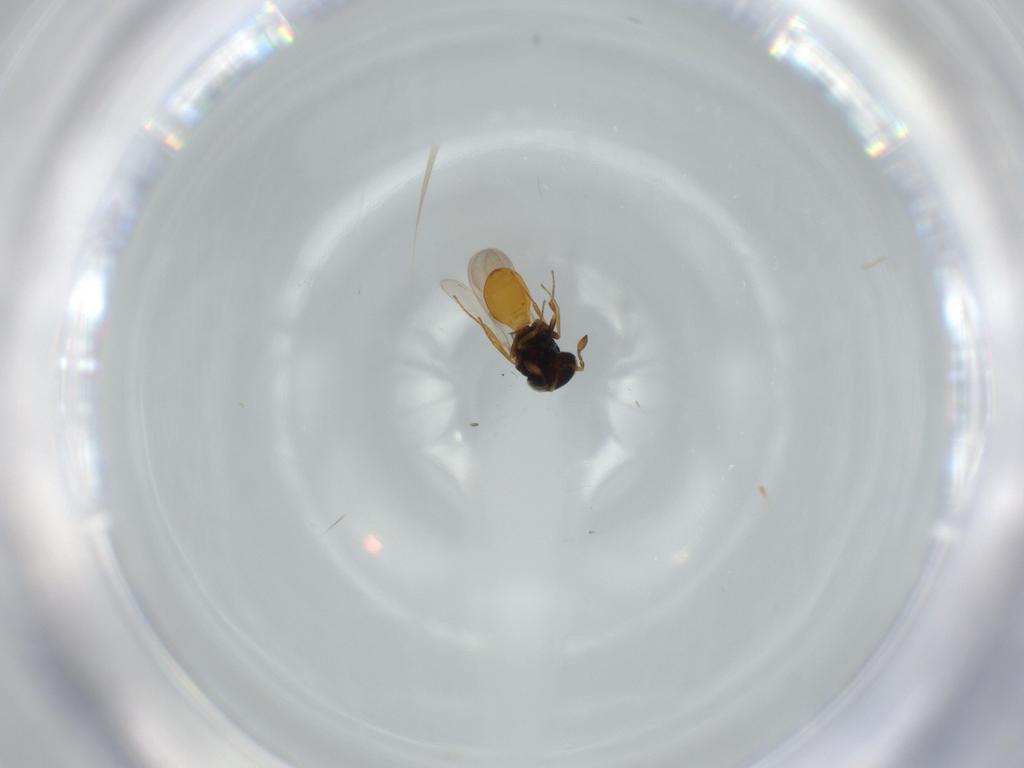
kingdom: Animalia
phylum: Arthropoda
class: Insecta
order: Hymenoptera
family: Scelionidae
